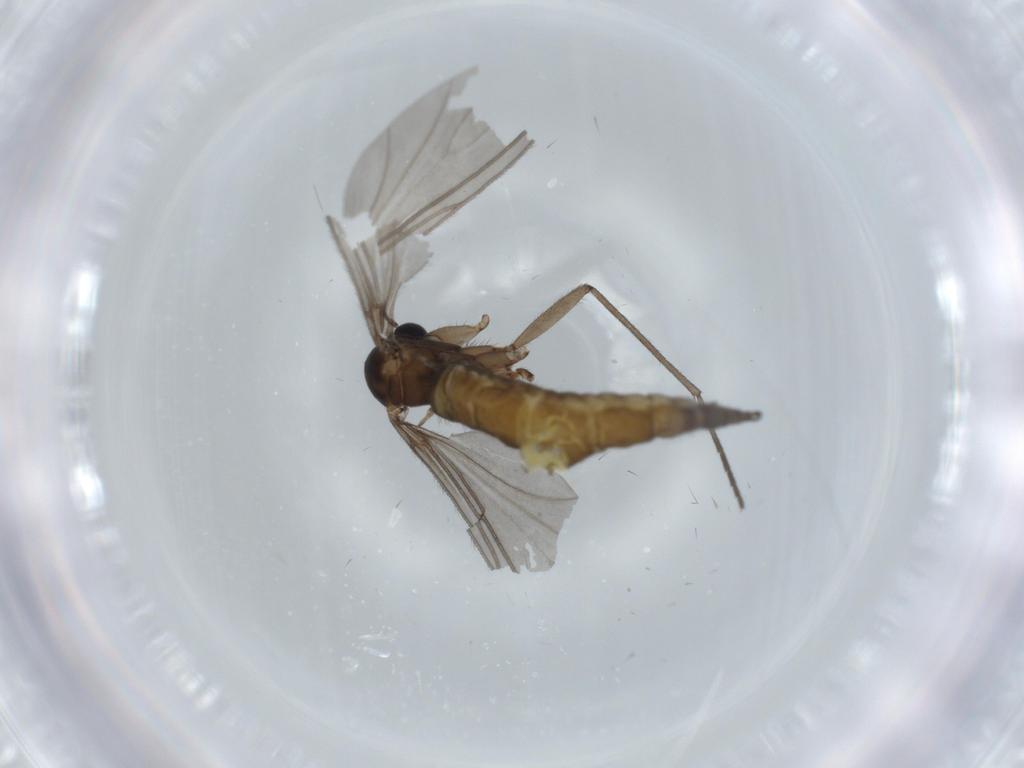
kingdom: Animalia
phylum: Arthropoda
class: Insecta
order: Diptera
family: Sciaridae
